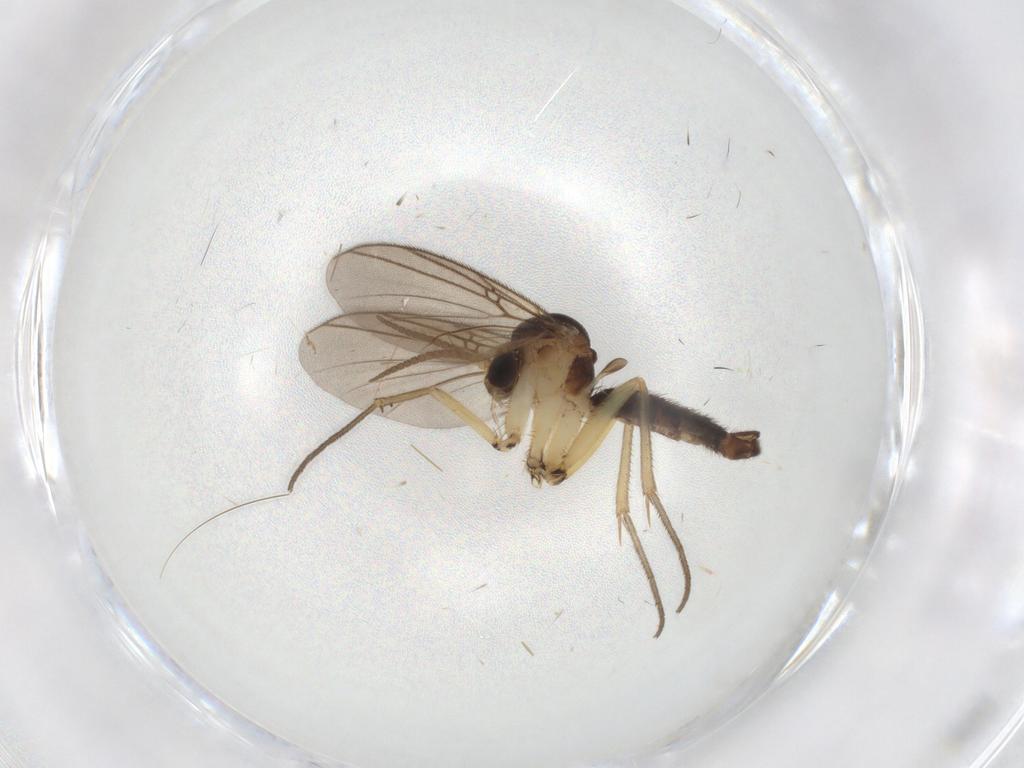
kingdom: Animalia
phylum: Arthropoda
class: Insecta
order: Diptera
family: Mycetophilidae
